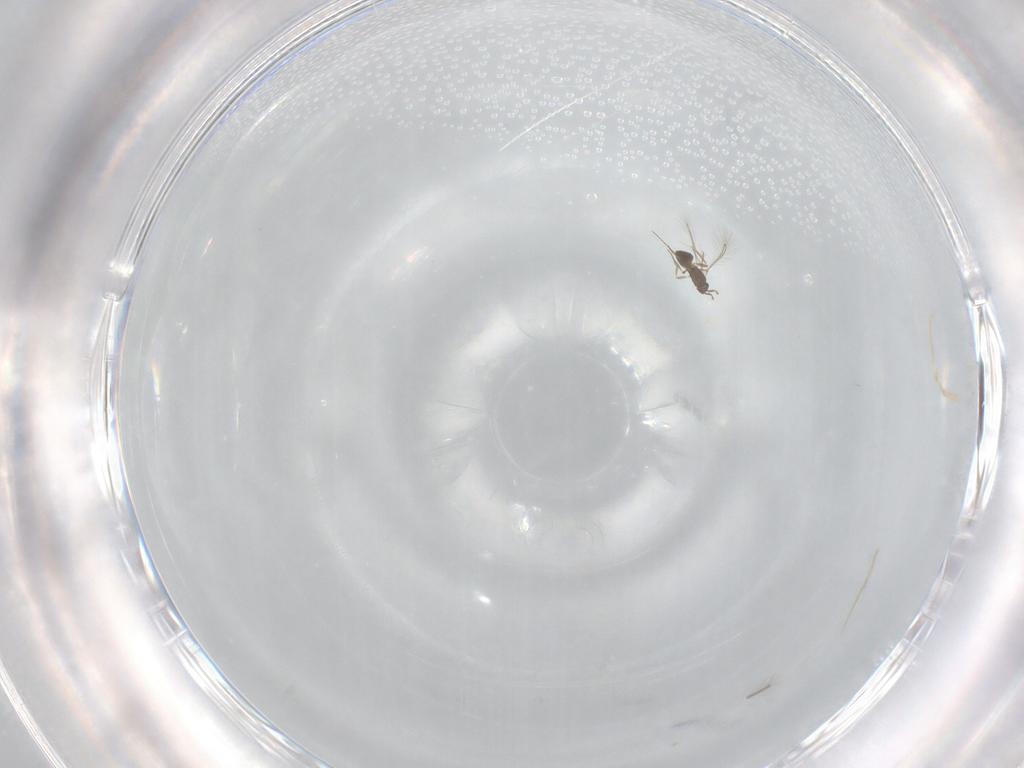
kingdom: Animalia
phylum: Arthropoda
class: Insecta
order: Hymenoptera
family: Mymaridae
